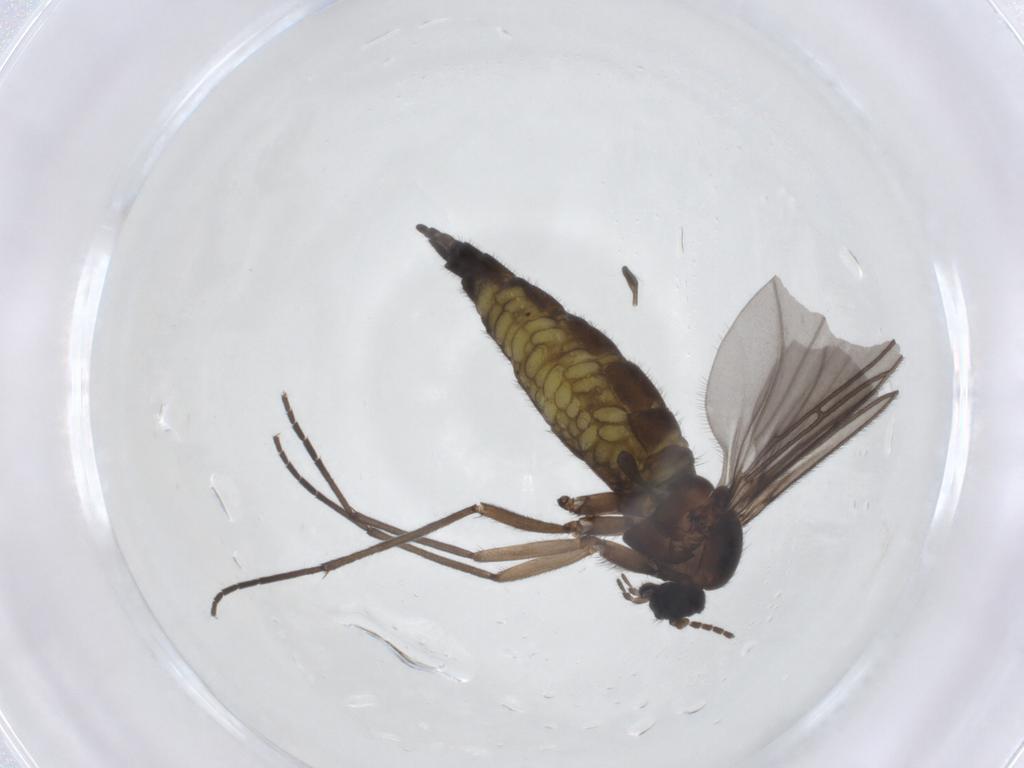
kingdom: Animalia
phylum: Arthropoda
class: Insecta
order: Diptera
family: Sciaridae
